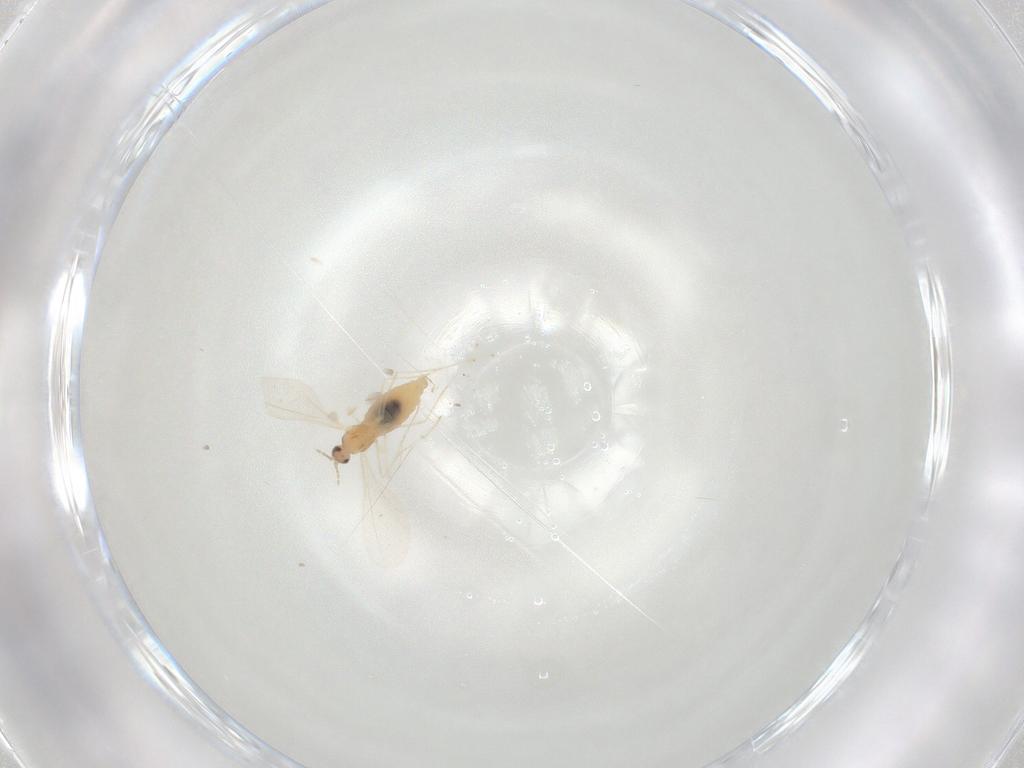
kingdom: Animalia
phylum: Arthropoda
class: Insecta
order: Diptera
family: Cecidomyiidae
